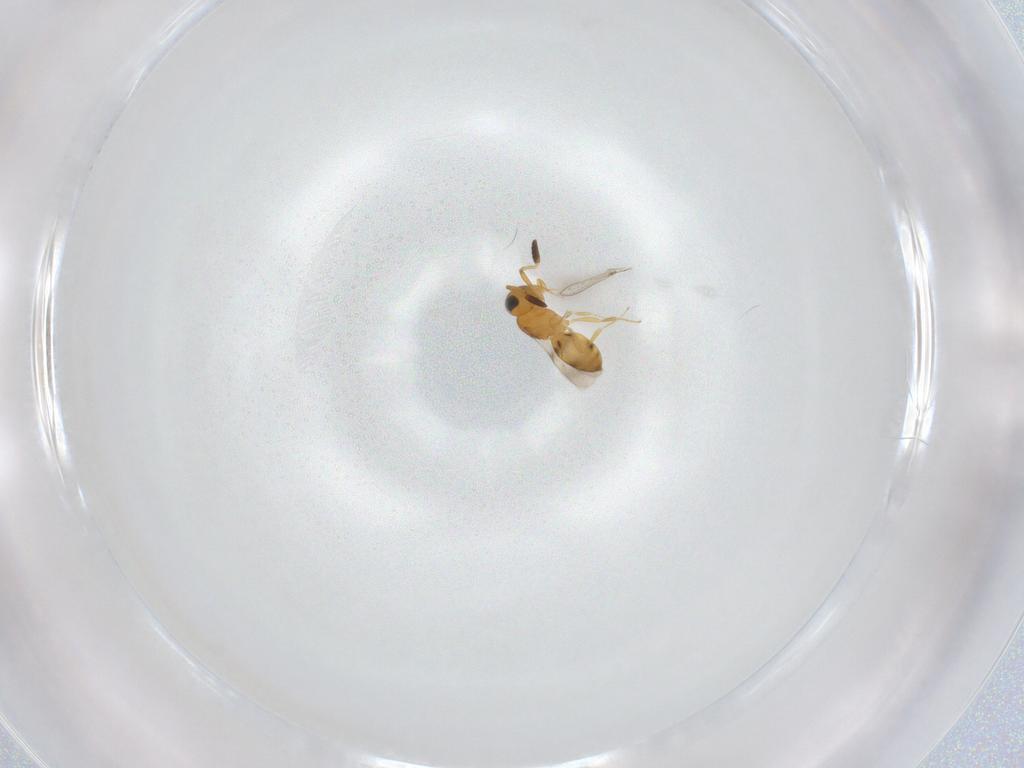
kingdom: Animalia
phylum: Arthropoda
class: Insecta
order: Hymenoptera
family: Scelionidae
